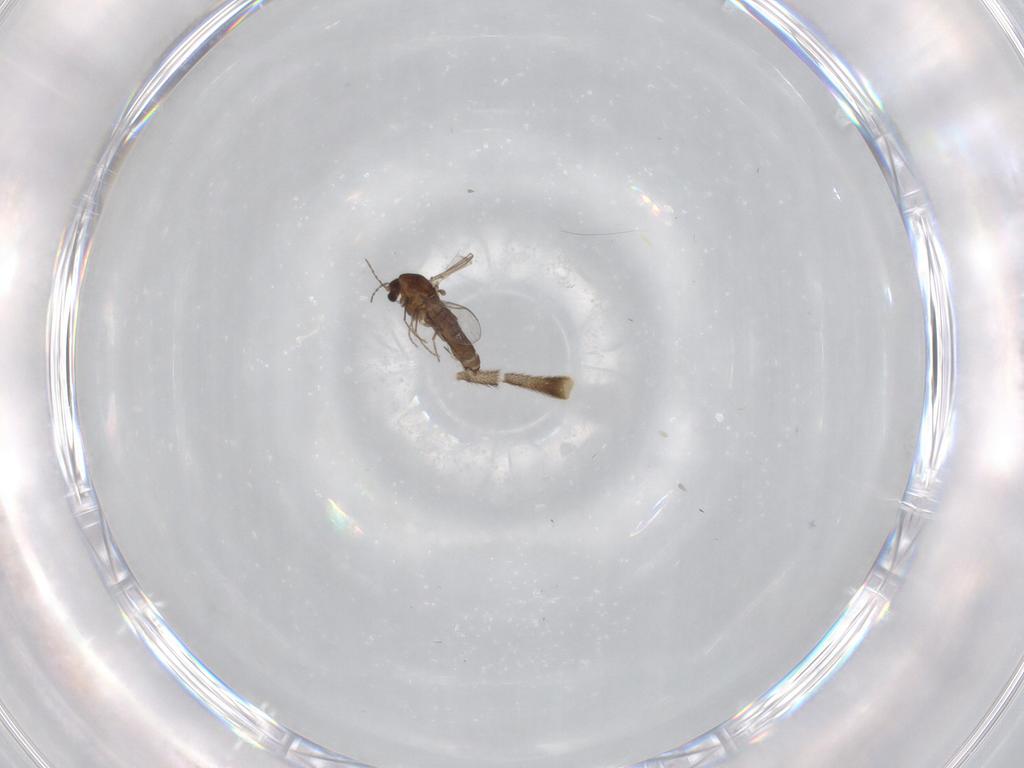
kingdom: Animalia
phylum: Arthropoda
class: Insecta
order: Diptera
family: Chironomidae
